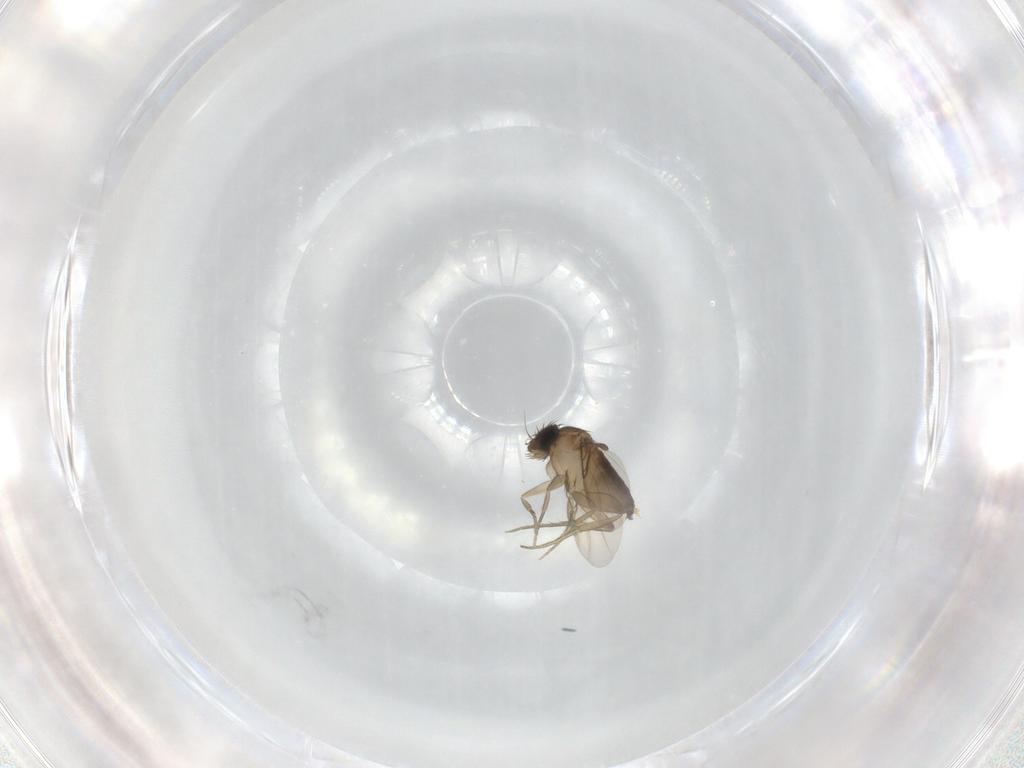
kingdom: Animalia
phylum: Arthropoda
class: Insecta
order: Diptera
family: Phoridae
